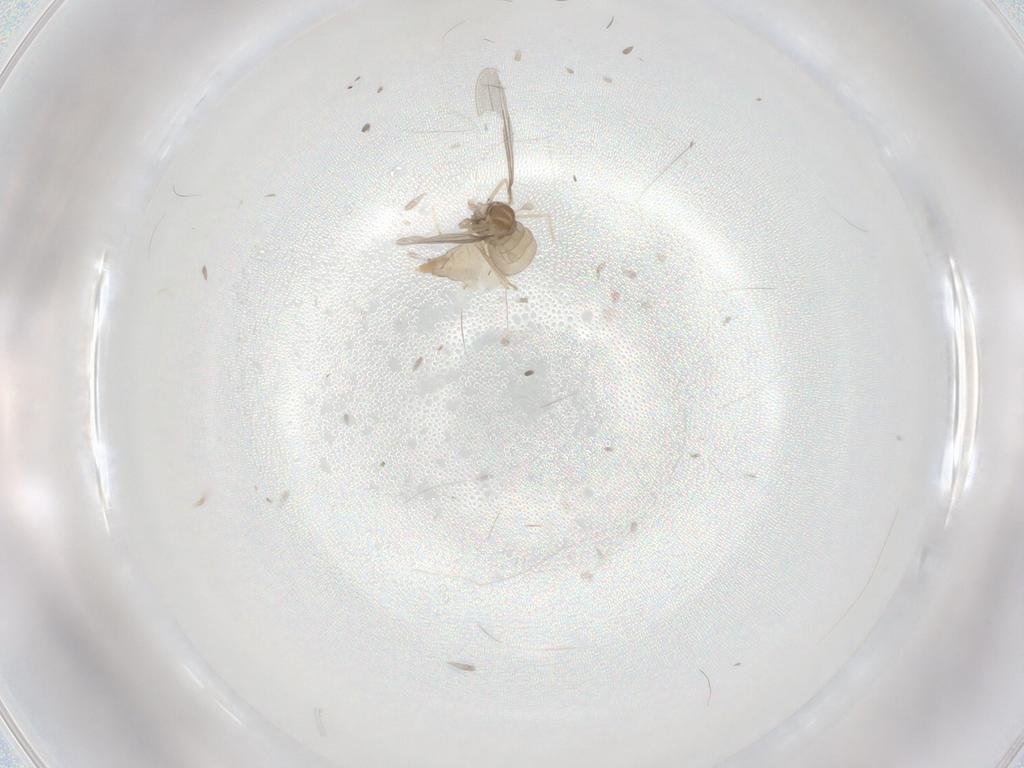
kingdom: Animalia
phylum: Arthropoda
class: Insecta
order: Diptera
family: Cecidomyiidae
